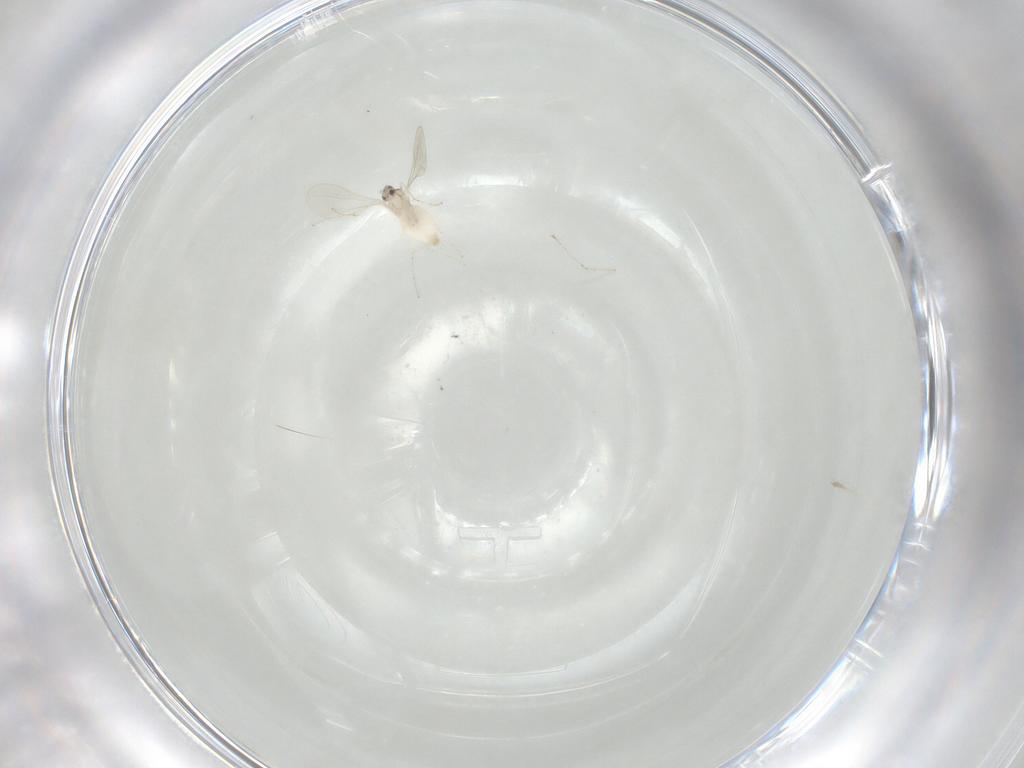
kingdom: Animalia
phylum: Arthropoda
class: Insecta
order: Diptera
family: Cecidomyiidae
